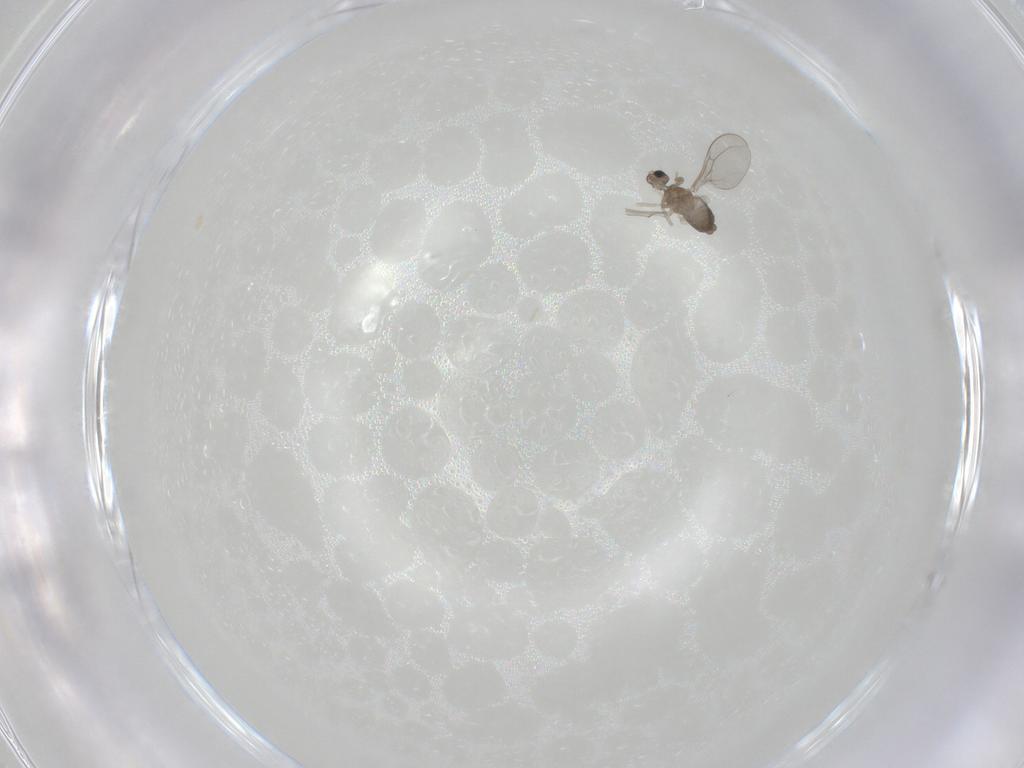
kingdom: Animalia
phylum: Arthropoda
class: Insecta
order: Diptera
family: Cecidomyiidae
